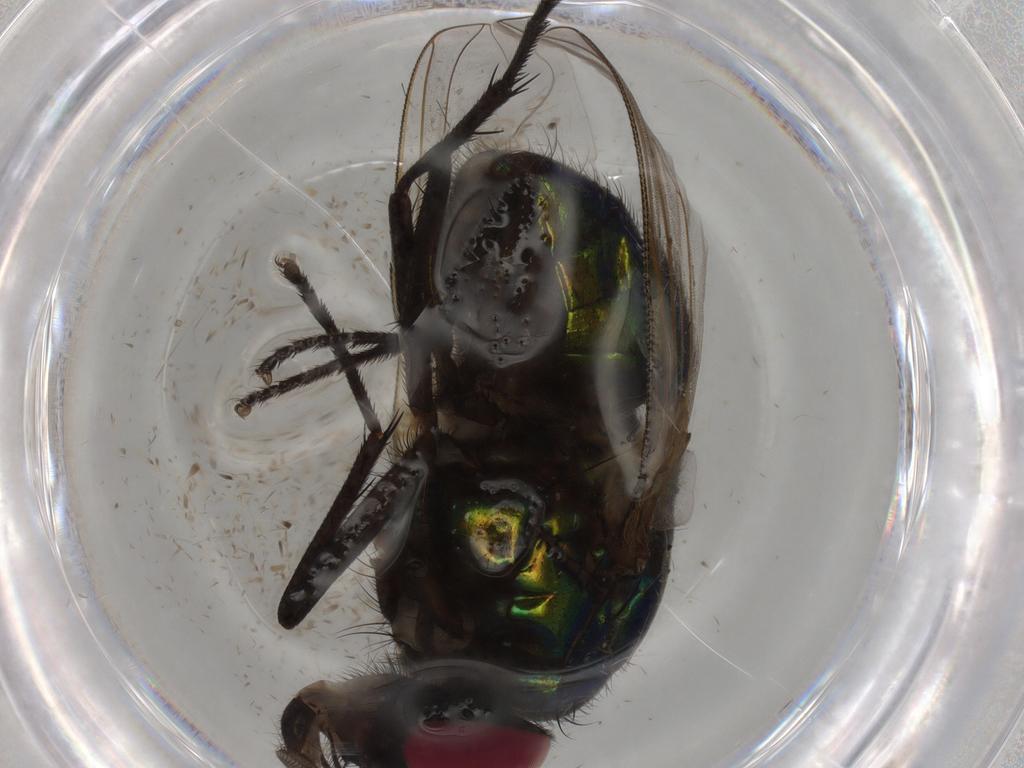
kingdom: Animalia
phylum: Arthropoda
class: Insecta
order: Diptera
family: Muscidae
